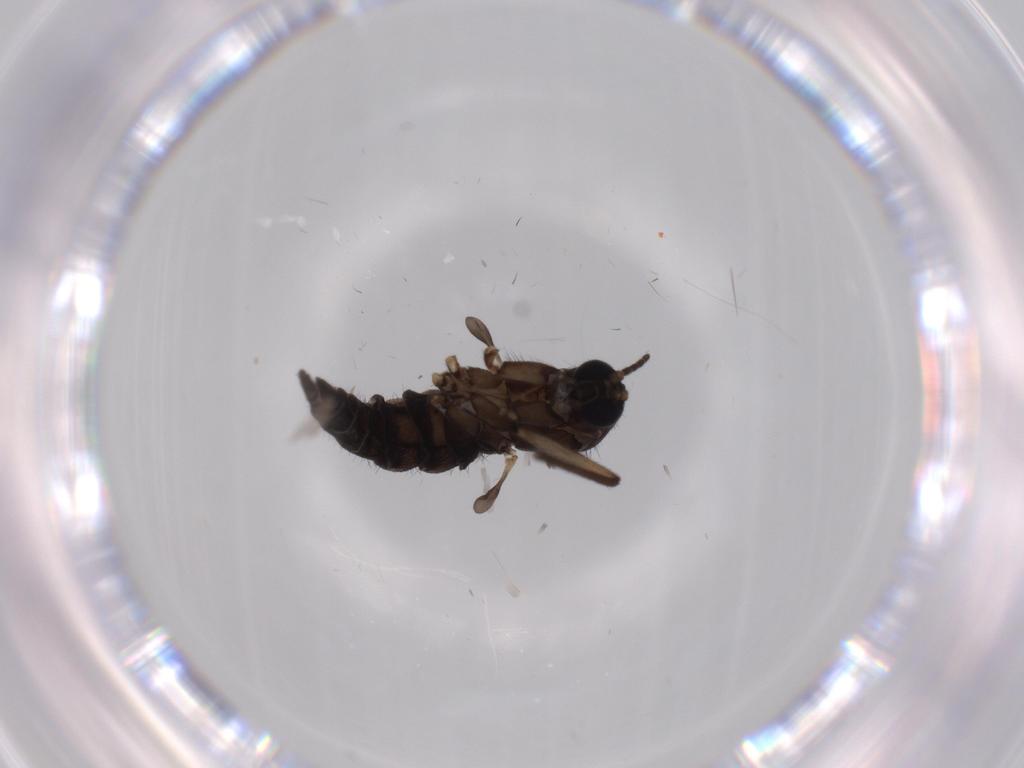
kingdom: Animalia
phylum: Arthropoda
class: Insecta
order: Diptera
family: Sciaridae
